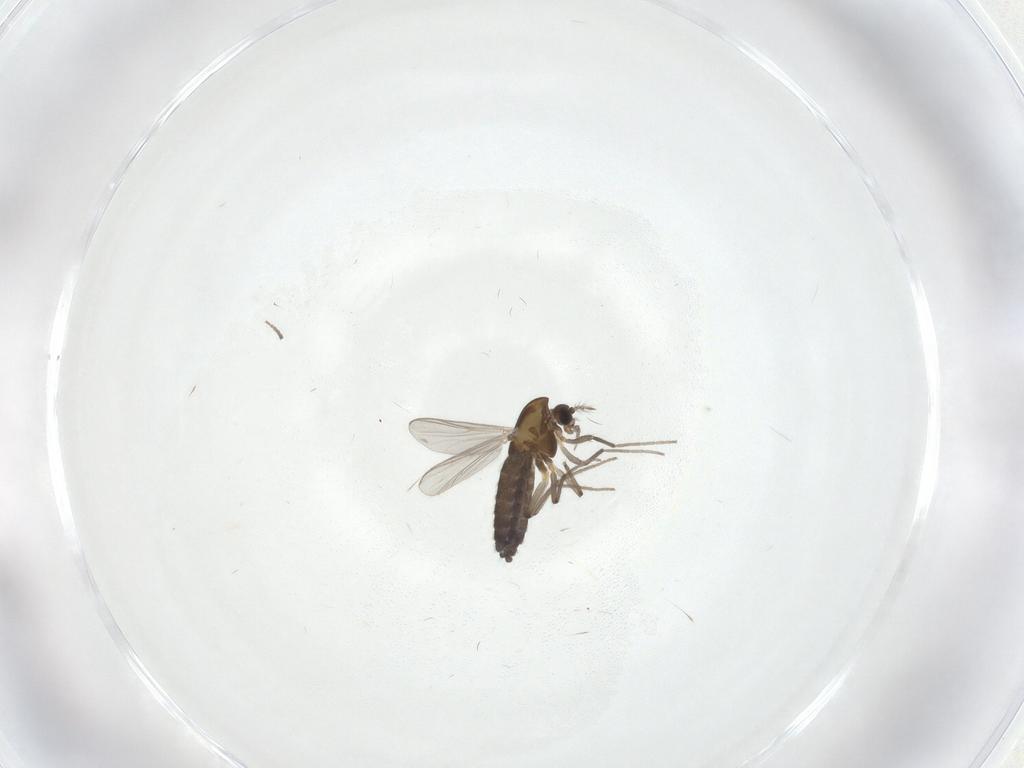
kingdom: Animalia
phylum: Arthropoda
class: Insecta
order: Diptera
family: Chironomidae
